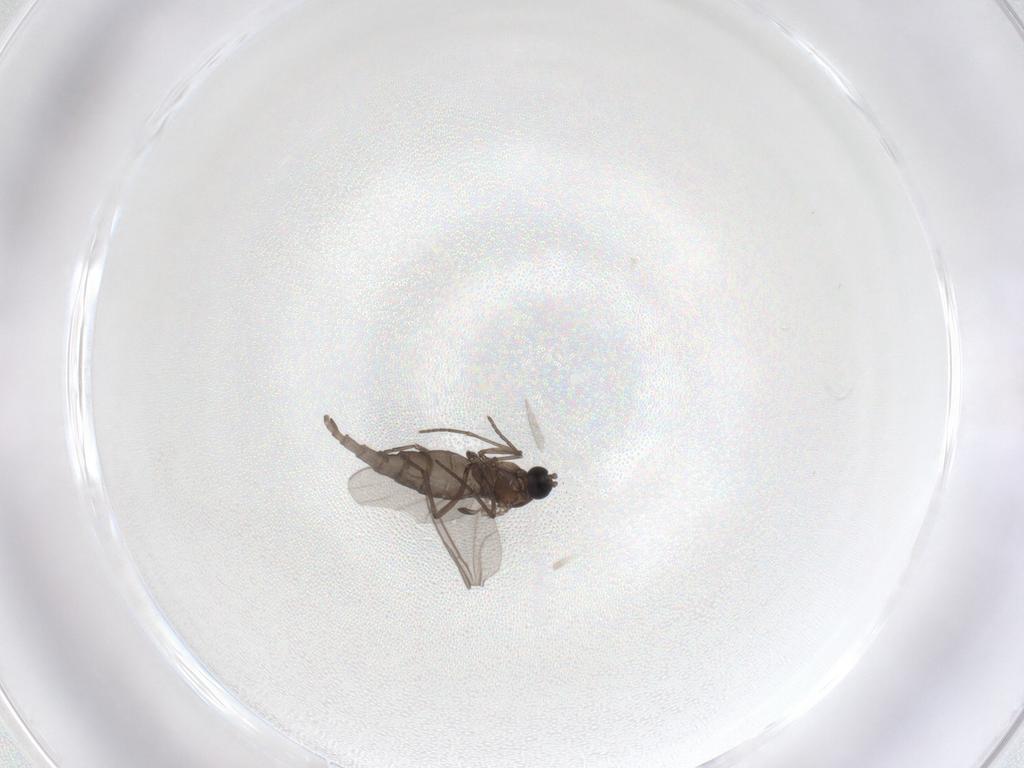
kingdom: Animalia
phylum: Arthropoda
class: Insecta
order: Diptera
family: Sciaridae
